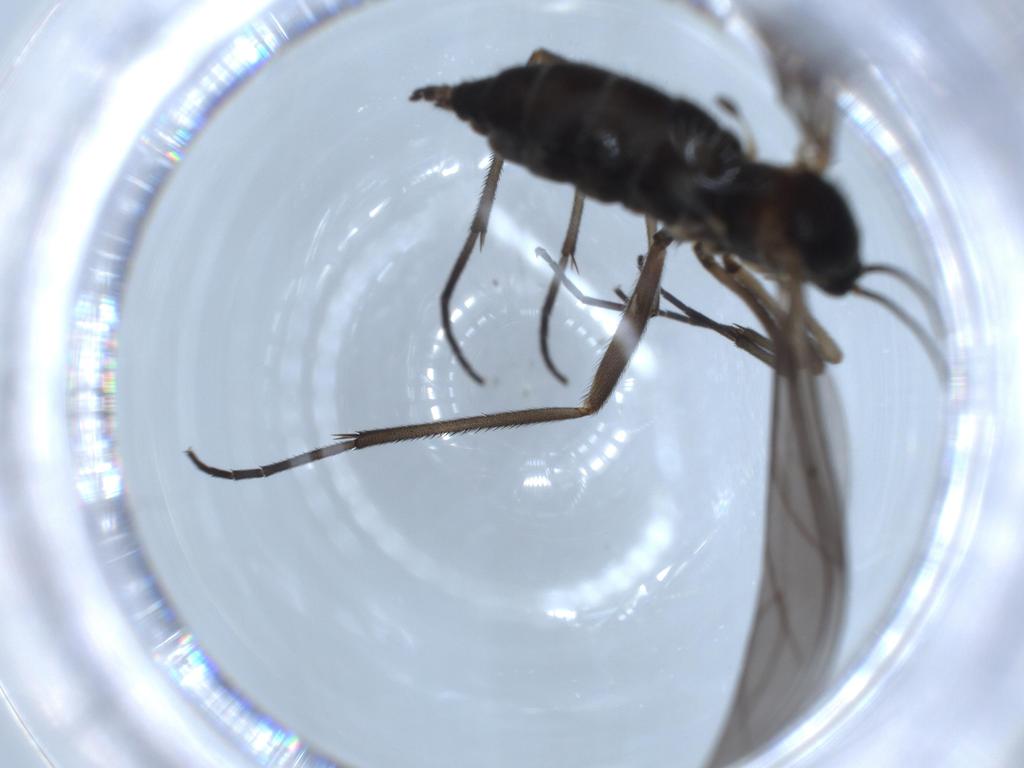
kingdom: Animalia
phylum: Arthropoda
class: Insecta
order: Diptera
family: Sciaridae
